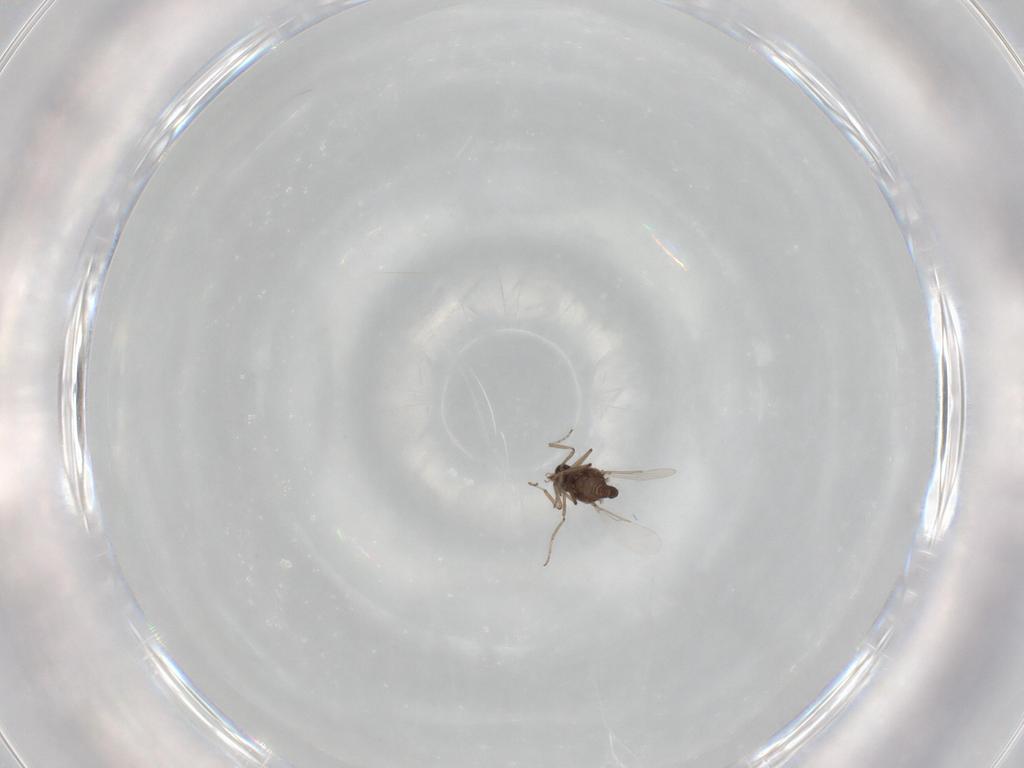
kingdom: Animalia
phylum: Arthropoda
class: Insecta
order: Diptera
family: Ceratopogonidae
